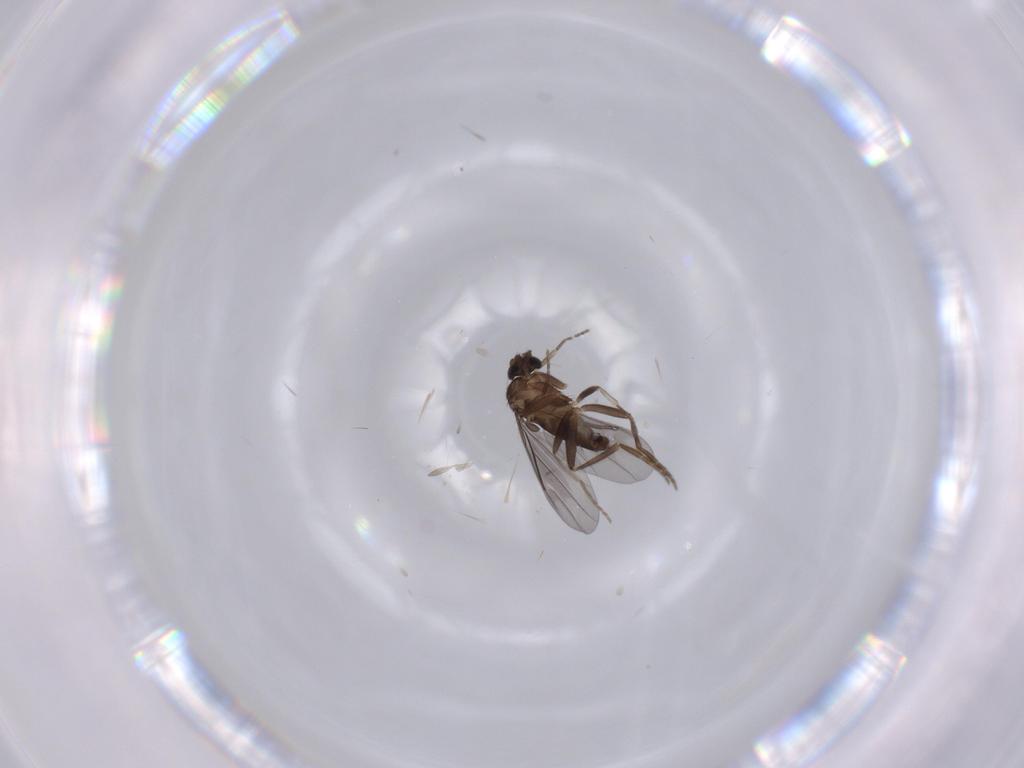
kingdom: Animalia
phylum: Arthropoda
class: Insecta
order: Diptera
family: Phoridae
